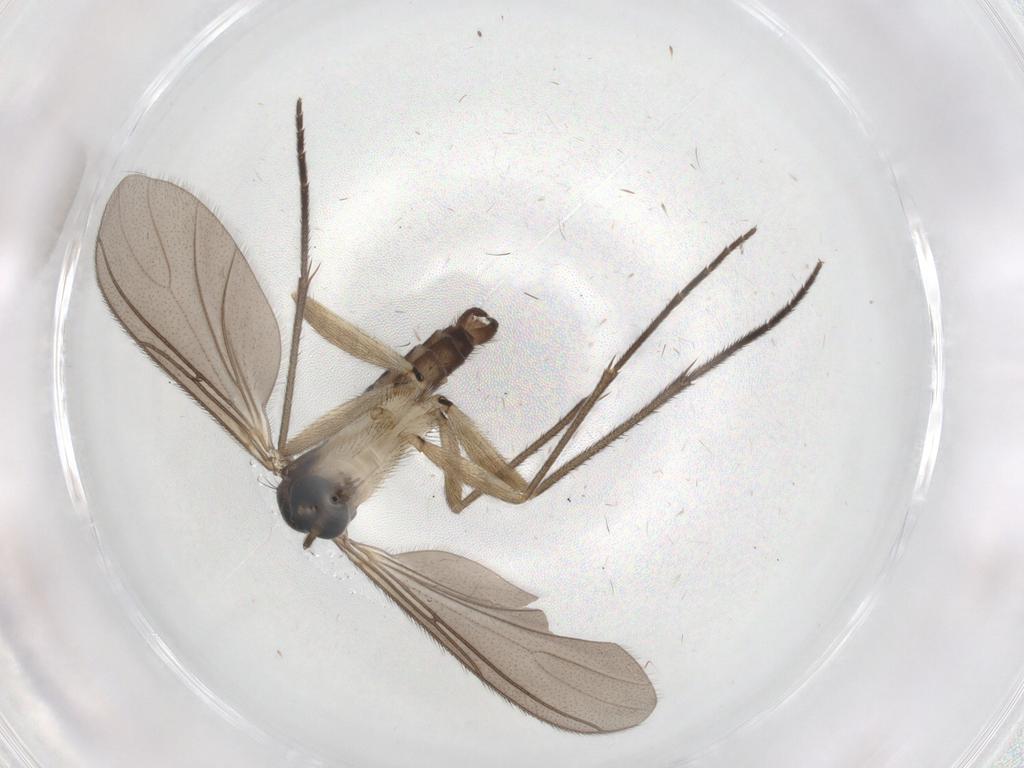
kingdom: Animalia
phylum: Arthropoda
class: Insecta
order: Diptera
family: Sciaridae
